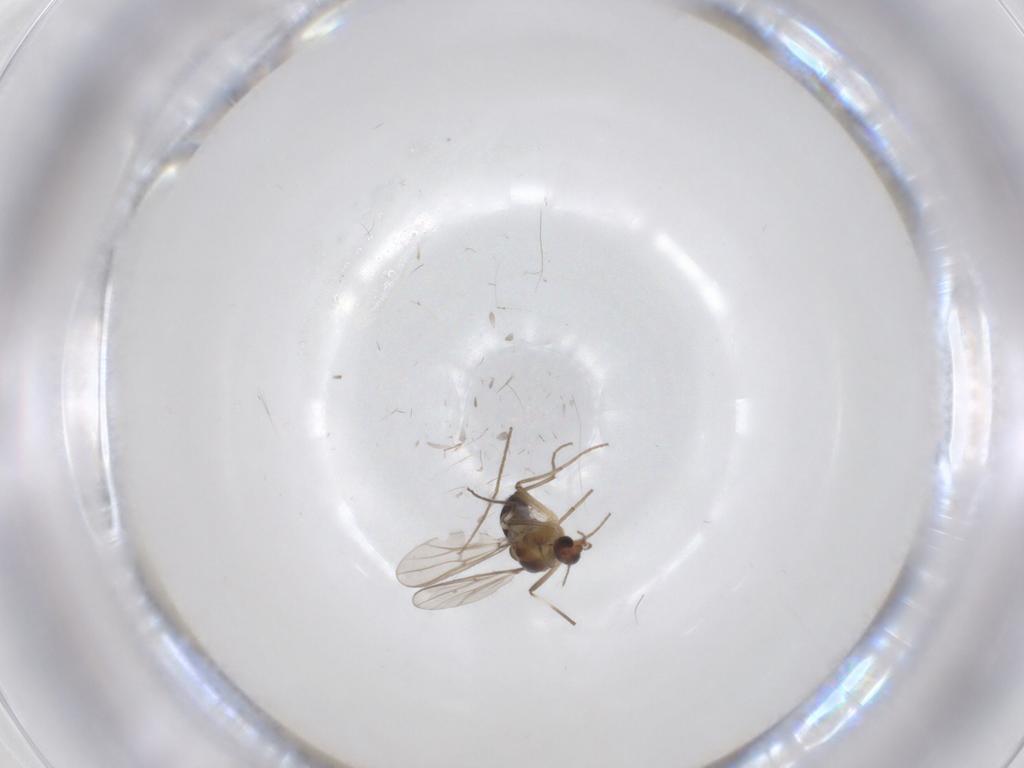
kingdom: Animalia
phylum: Arthropoda
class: Insecta
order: Diptera
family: Chironomidae
